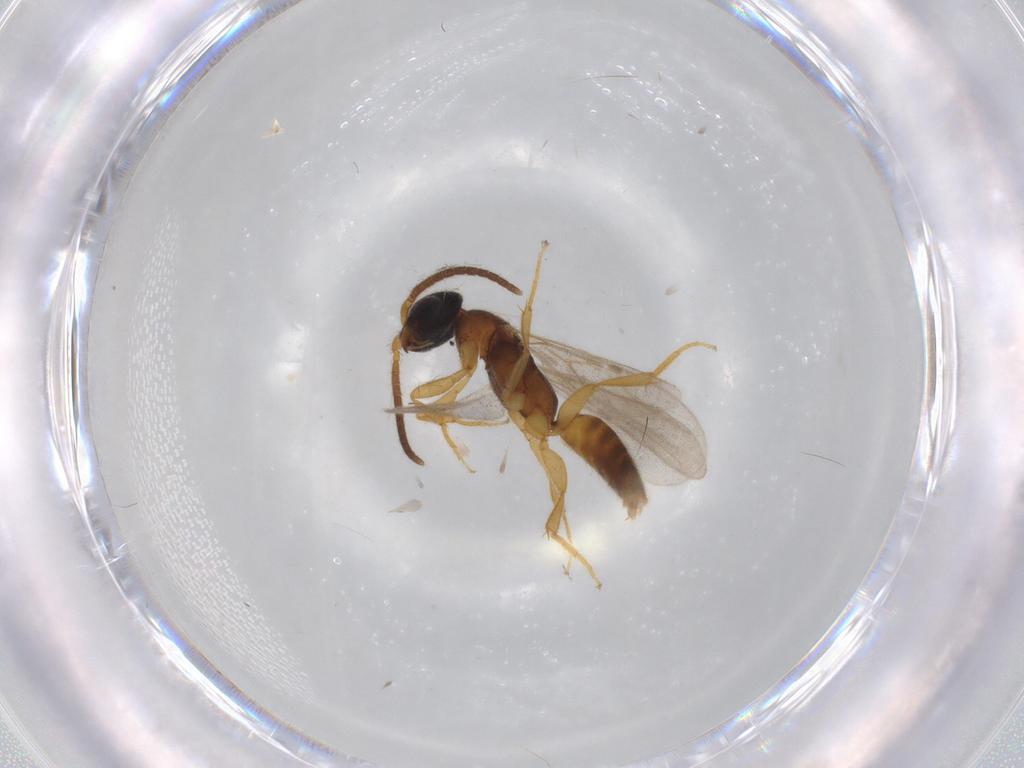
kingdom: Animalia
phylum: Arthropoda
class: Insecta
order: Hymenoptera
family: Bethylidae
